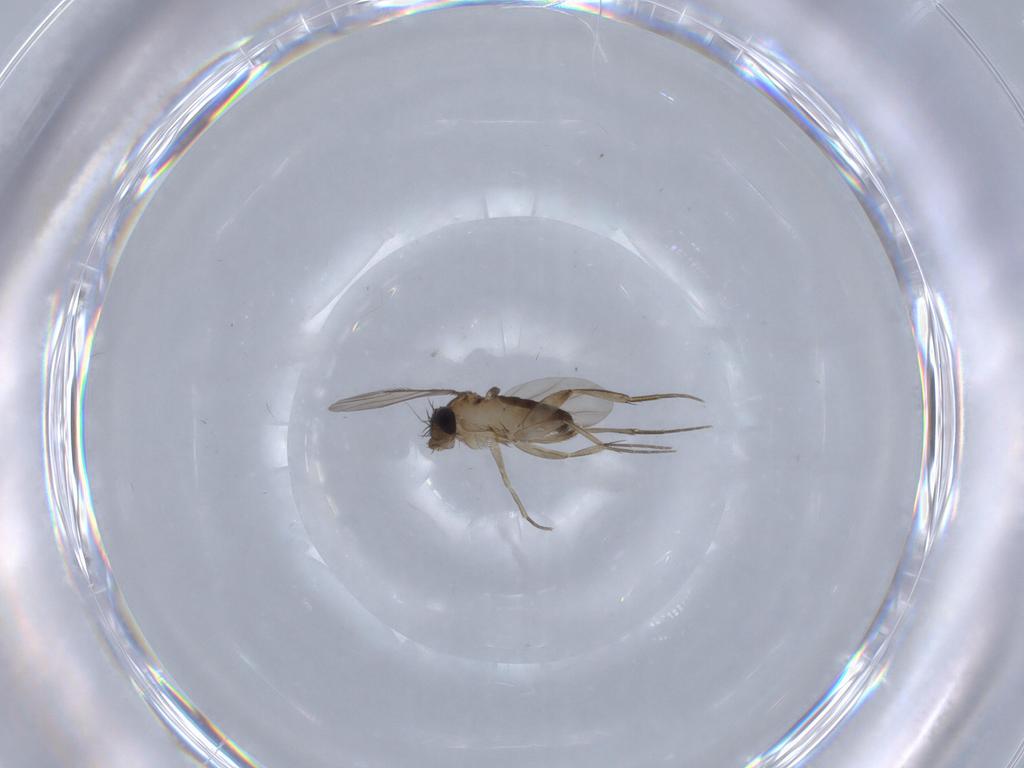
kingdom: Animalia
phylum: Arthropoda
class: Insecta
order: Diptera
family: Phoridae
